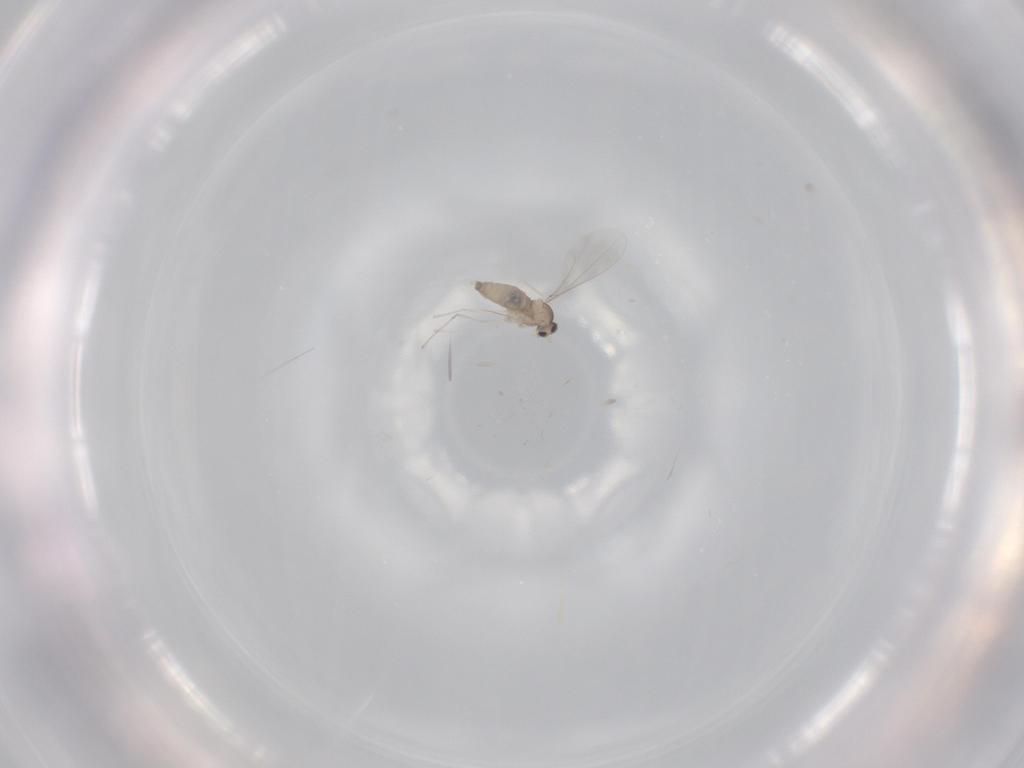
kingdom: Animalia
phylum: Arthropoda
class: Insecta
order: Diptera
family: Cecidomyiidae
